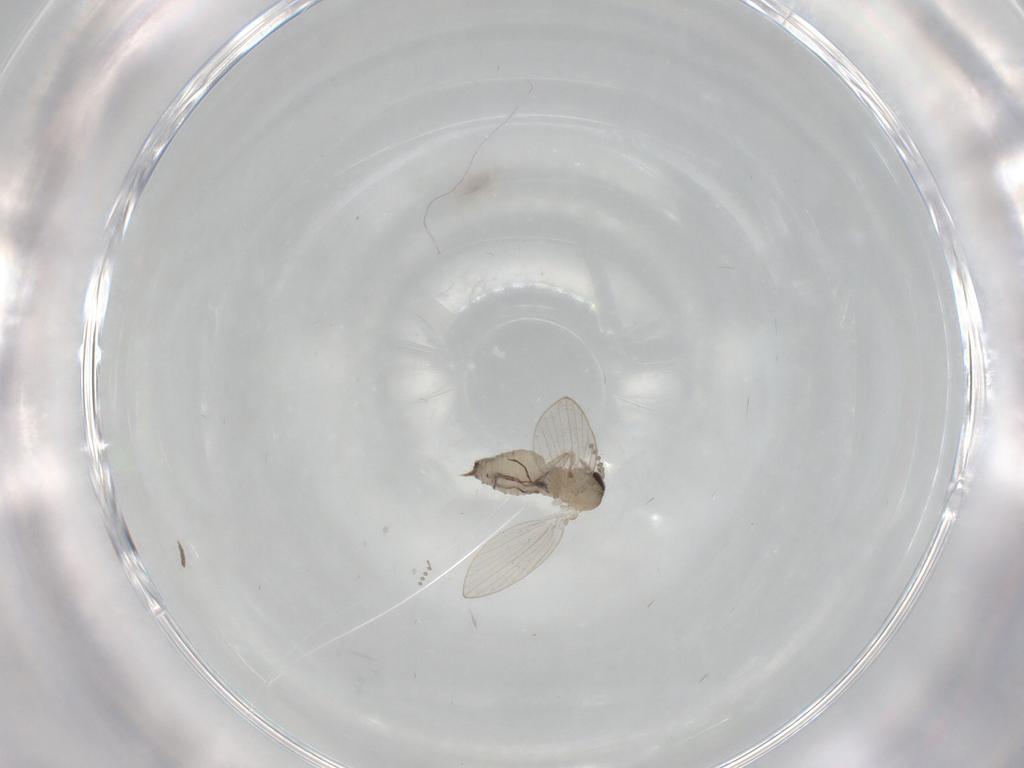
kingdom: Animalia
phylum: Arthropoda
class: Insecta
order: Diptera
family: Psychodidae
